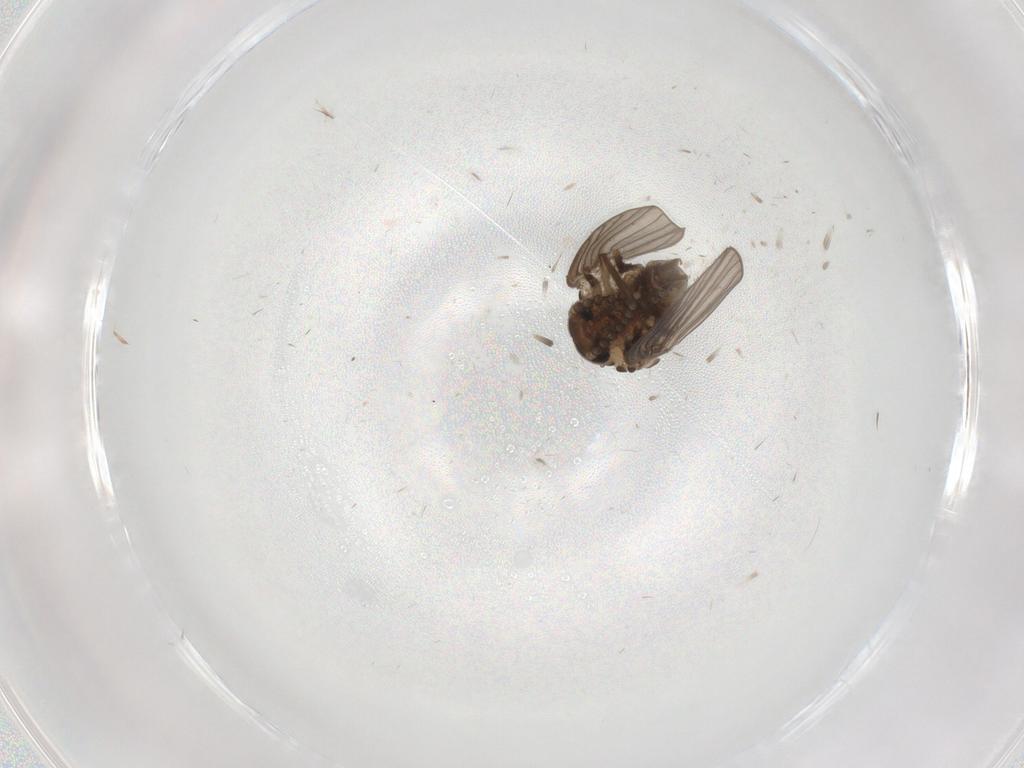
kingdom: Animalia
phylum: Arthropoda
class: Insecta
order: Diptera
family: Psychodidae
